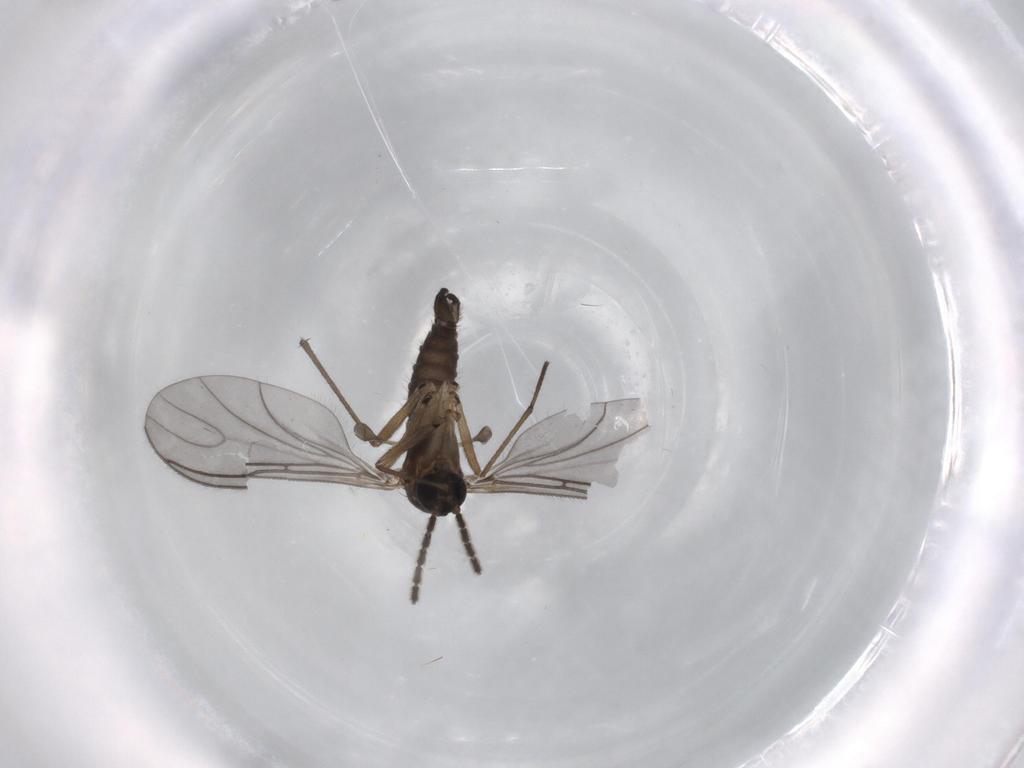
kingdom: Animalia
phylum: Arthropoda
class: Insecta
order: Diptera
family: Sciaridae
